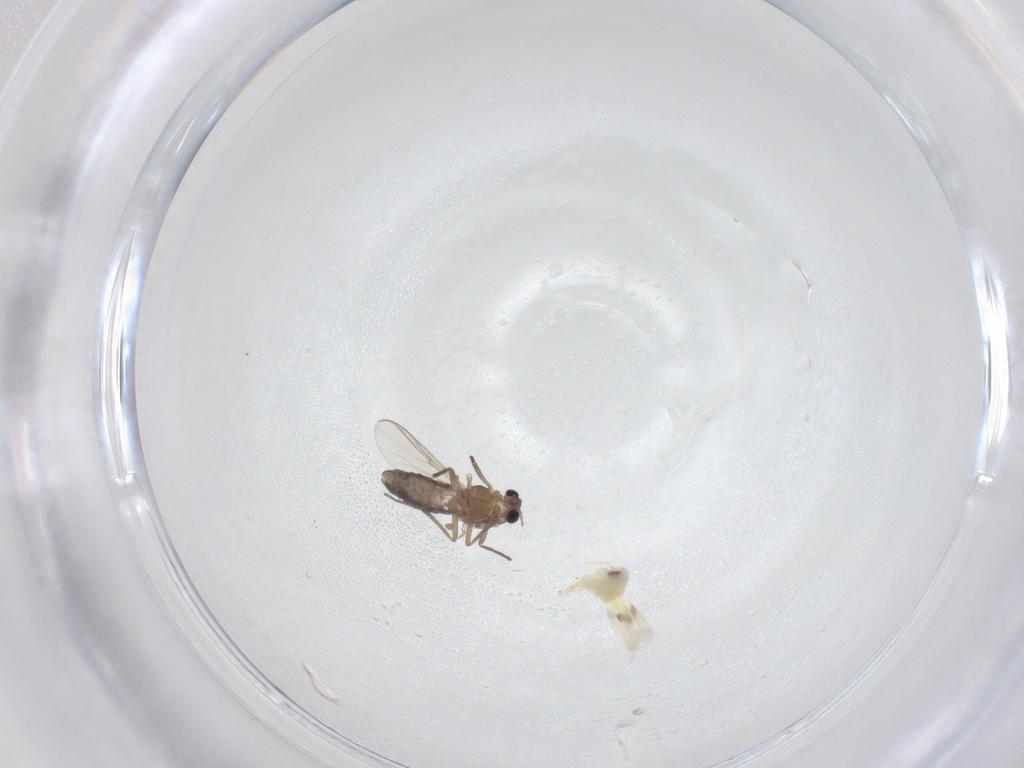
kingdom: Animalia
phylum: Arthropoda
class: Insecta
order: Diptera
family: Chironomidae
